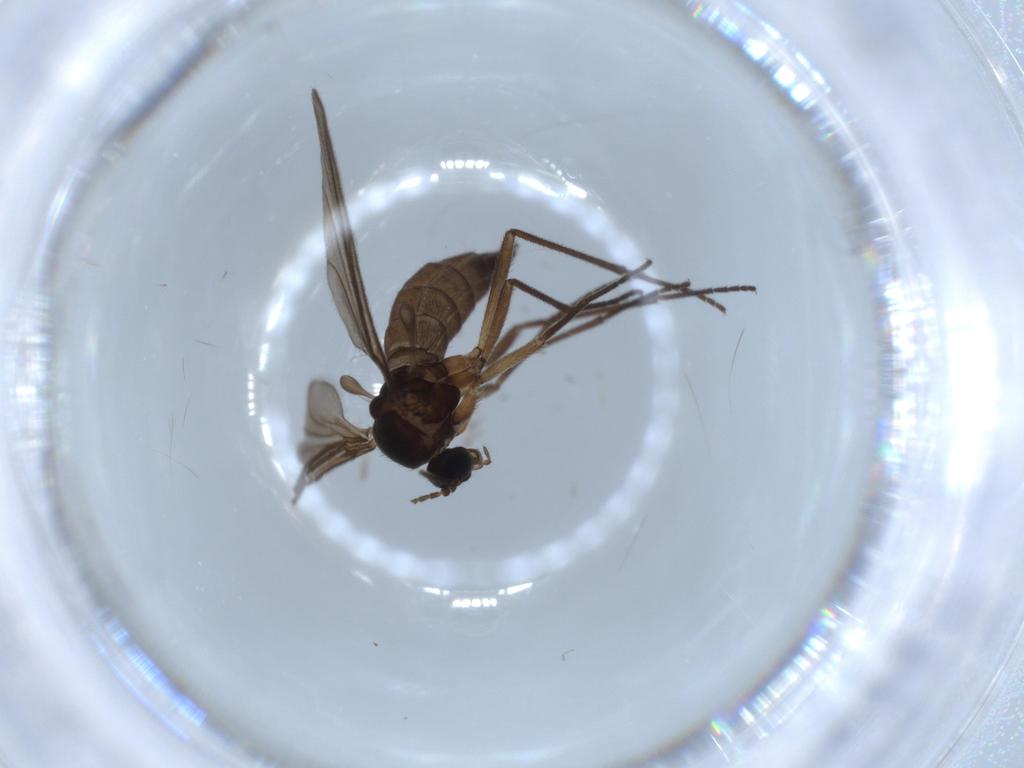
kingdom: Animalia
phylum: Arthropoda
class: Insecta
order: Diptera
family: Sciaridae
